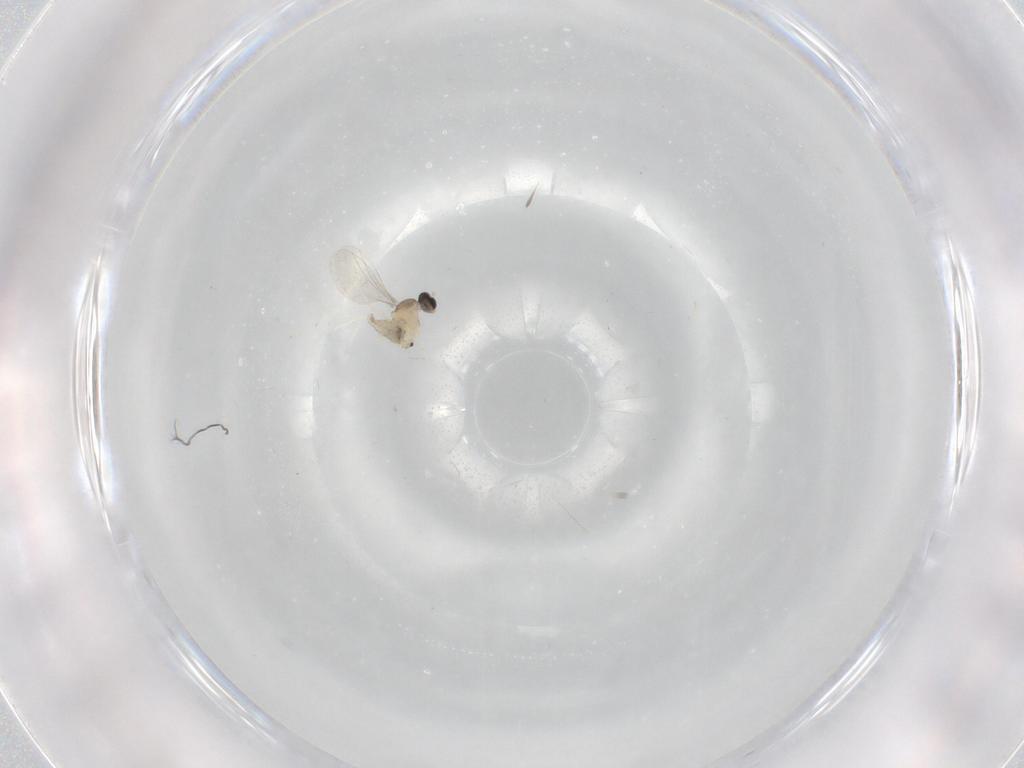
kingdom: Animalia
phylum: Arthropoda
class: Insecta
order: Diptera
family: Cecidomyiidae
